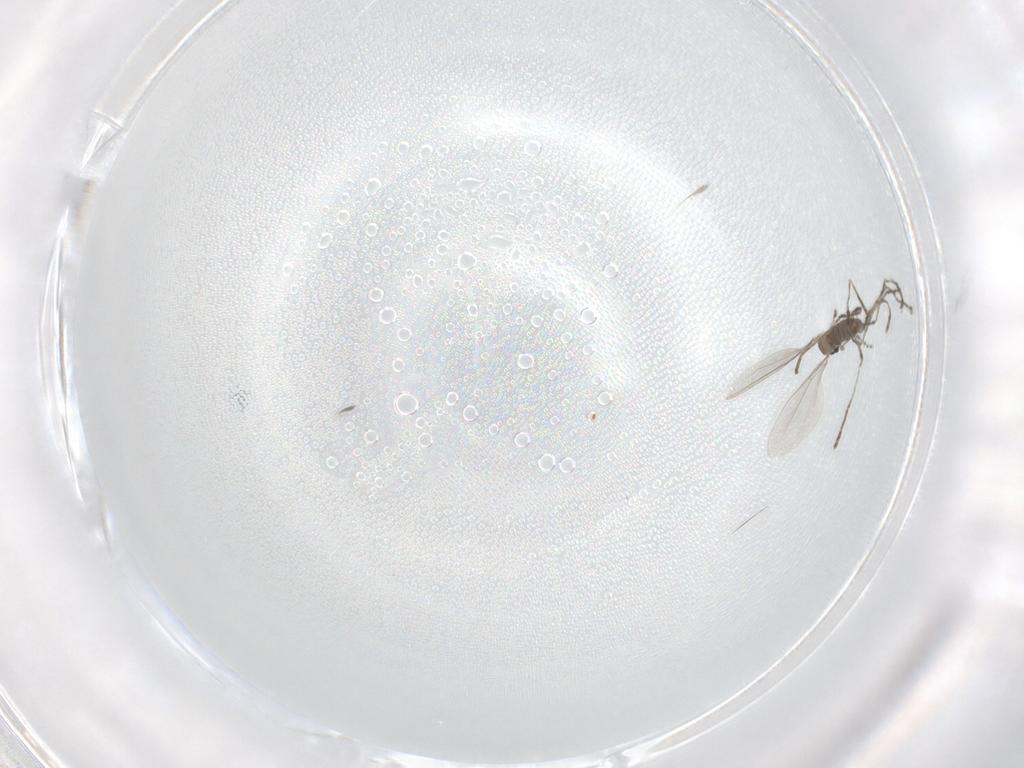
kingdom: Animalia
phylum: Arthropoda
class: Insecta
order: Diptera
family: Cecidomyiidae
